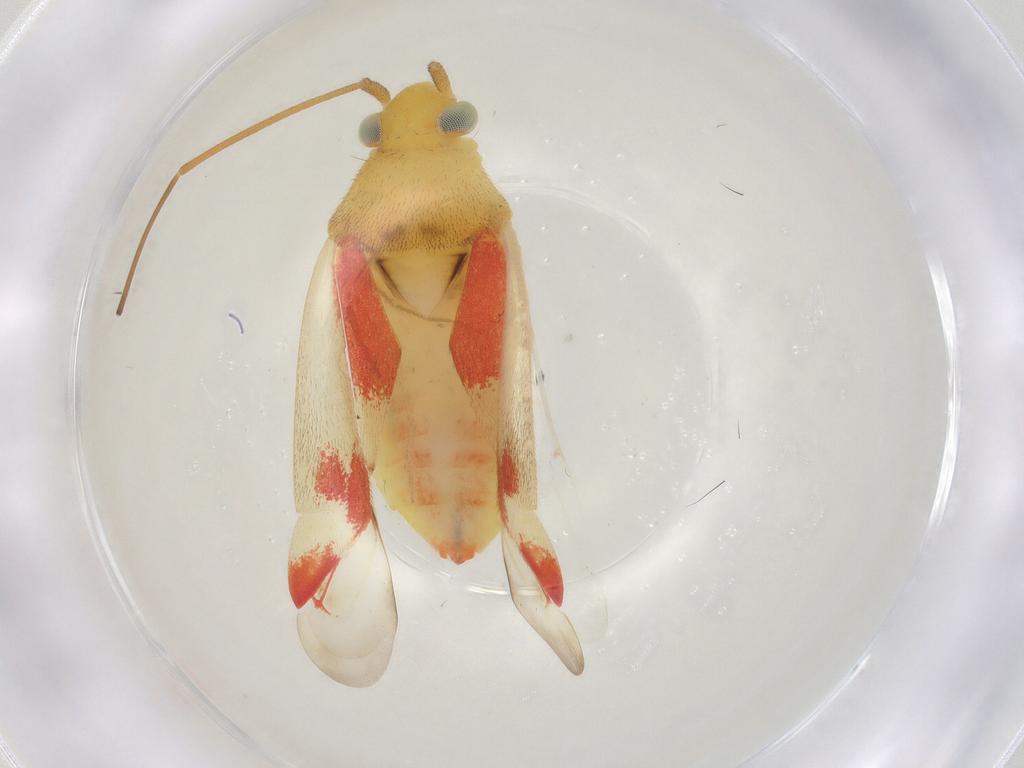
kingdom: Animalia
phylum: Arthropoda
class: Insecta
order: Hemiptera
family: Miridae
